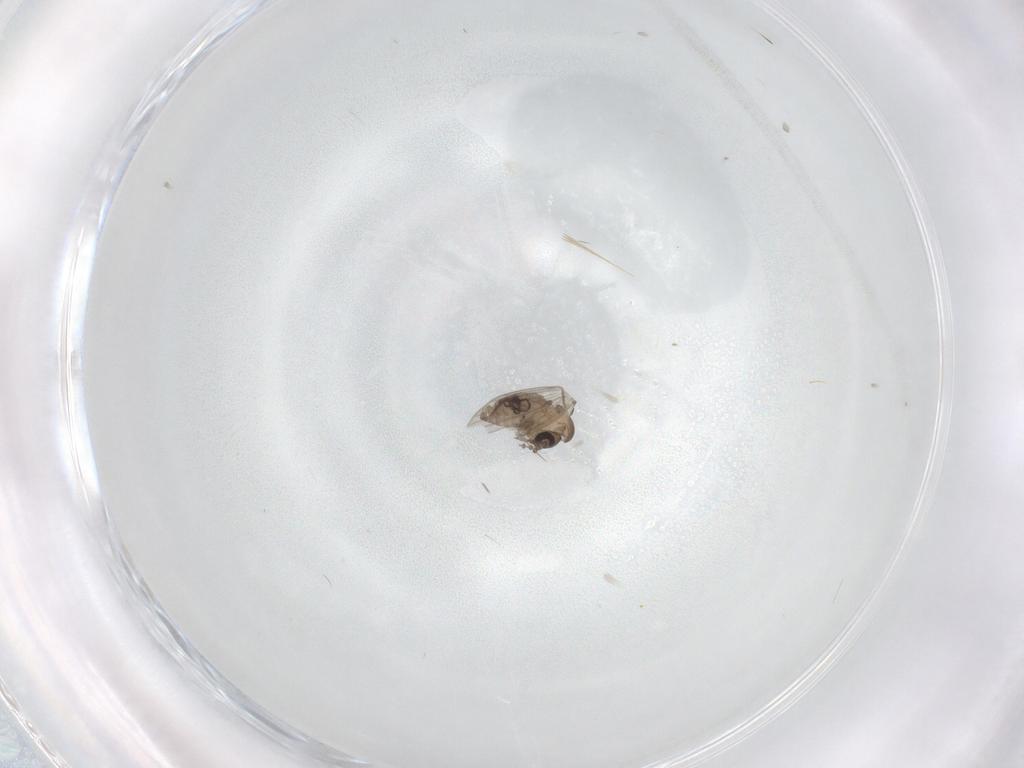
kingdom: Animalia
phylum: Arthropoda
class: Insecta
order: Diptera
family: Psychodidae
